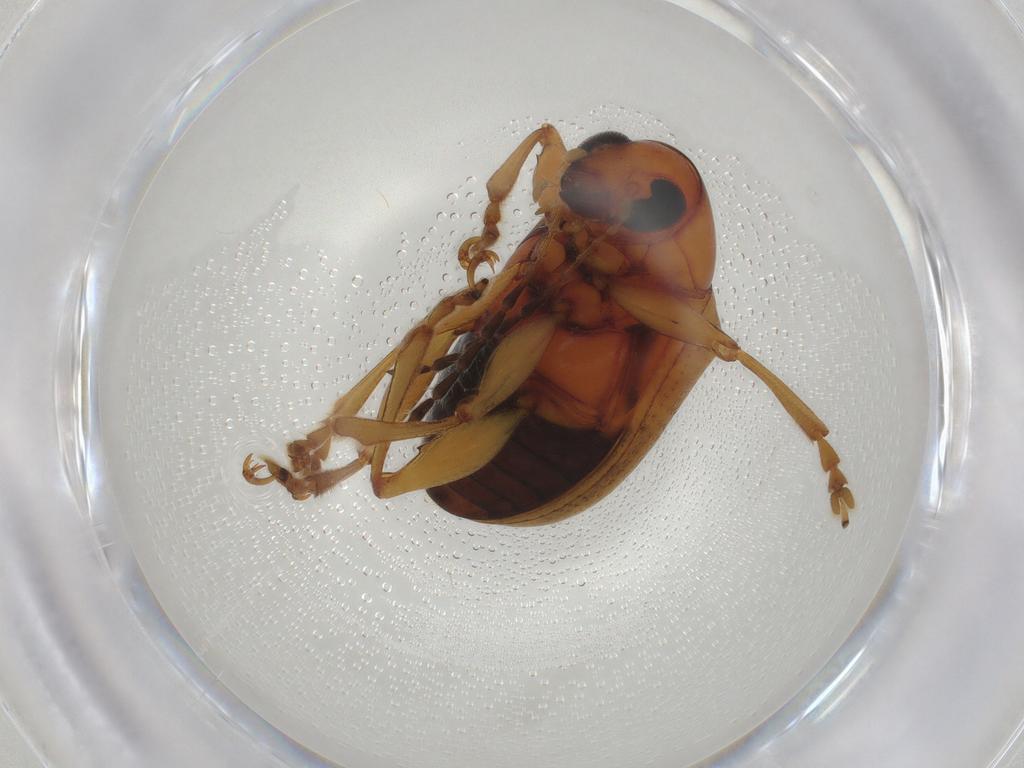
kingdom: Animalia
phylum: Arthropoda
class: Insecta
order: Coleoptera
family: Chrysomelidae
